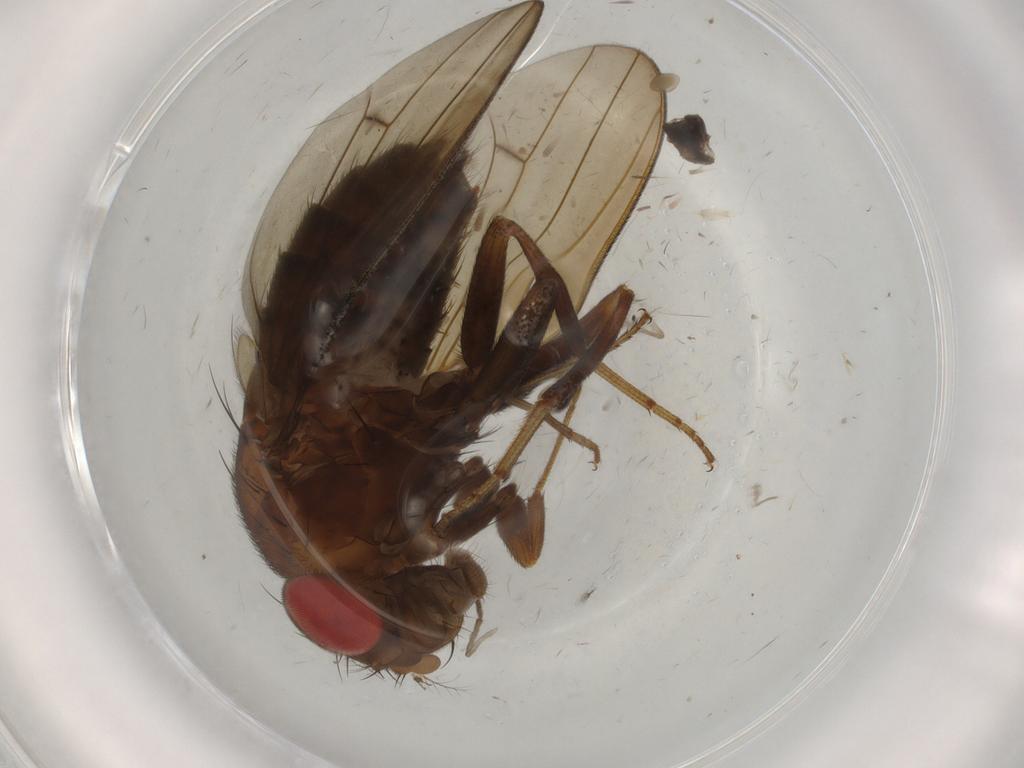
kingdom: Animalia
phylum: Arthropoda
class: Insecta
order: Diptera
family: Cecidomyiidae
